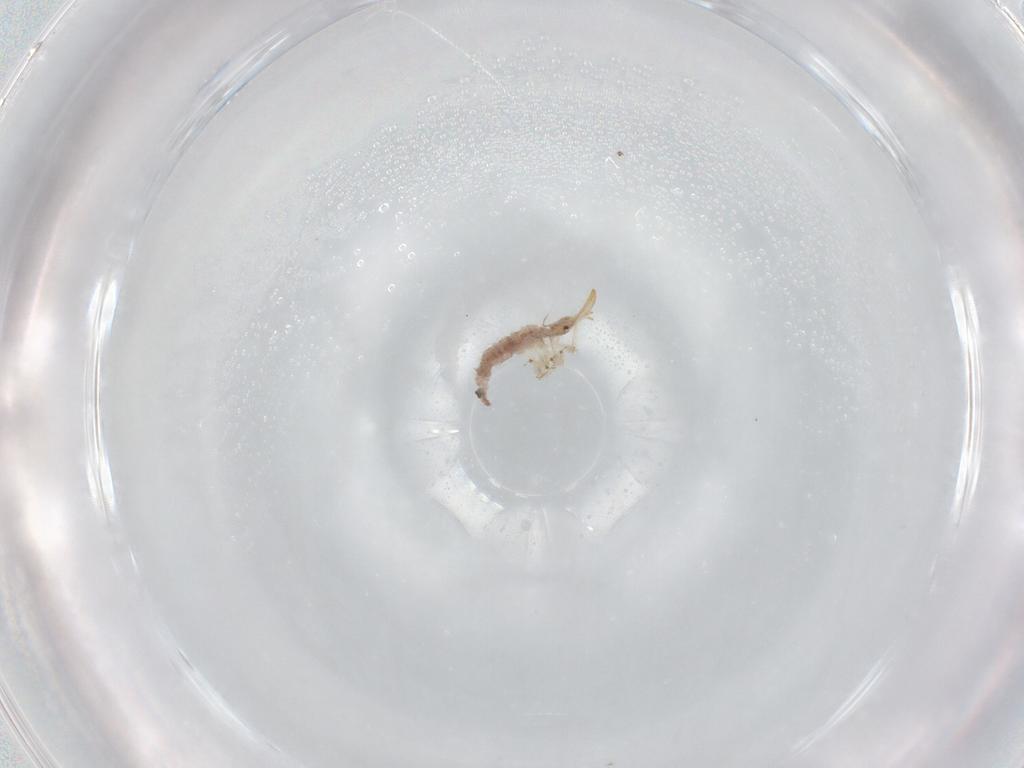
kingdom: Animalia
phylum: Arthropoda
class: Insecta
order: Neuroptera
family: Chrysopidae
